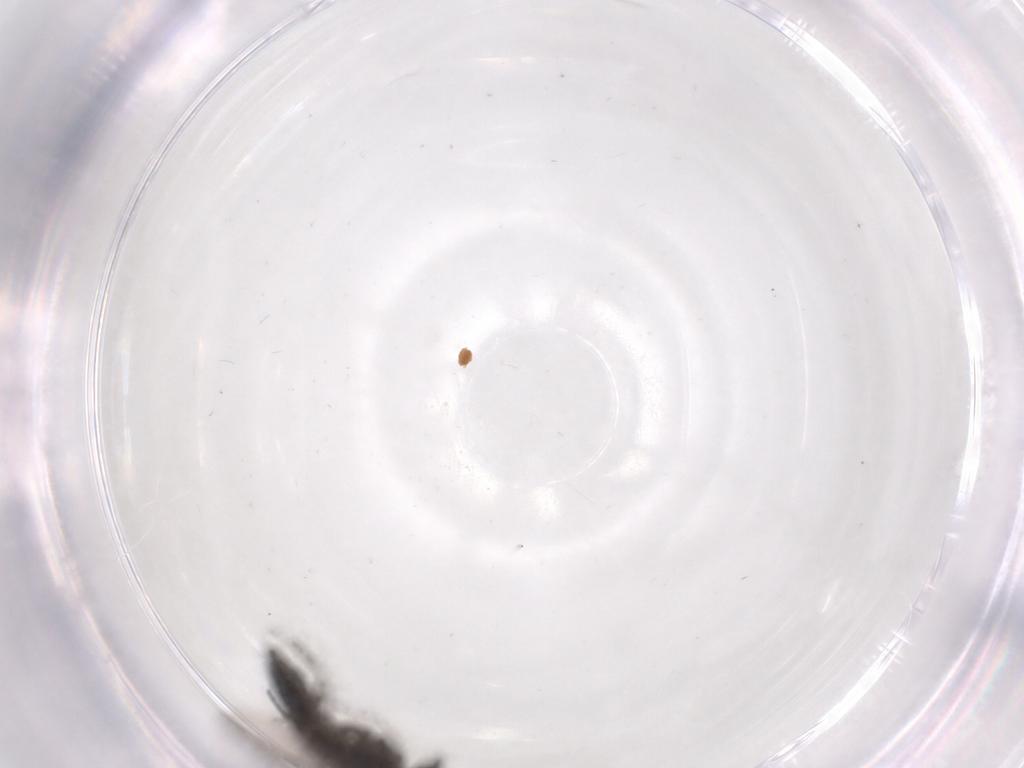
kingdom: Animalia
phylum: Arthropoda
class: Insecta
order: Diptera
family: Chironomidae
